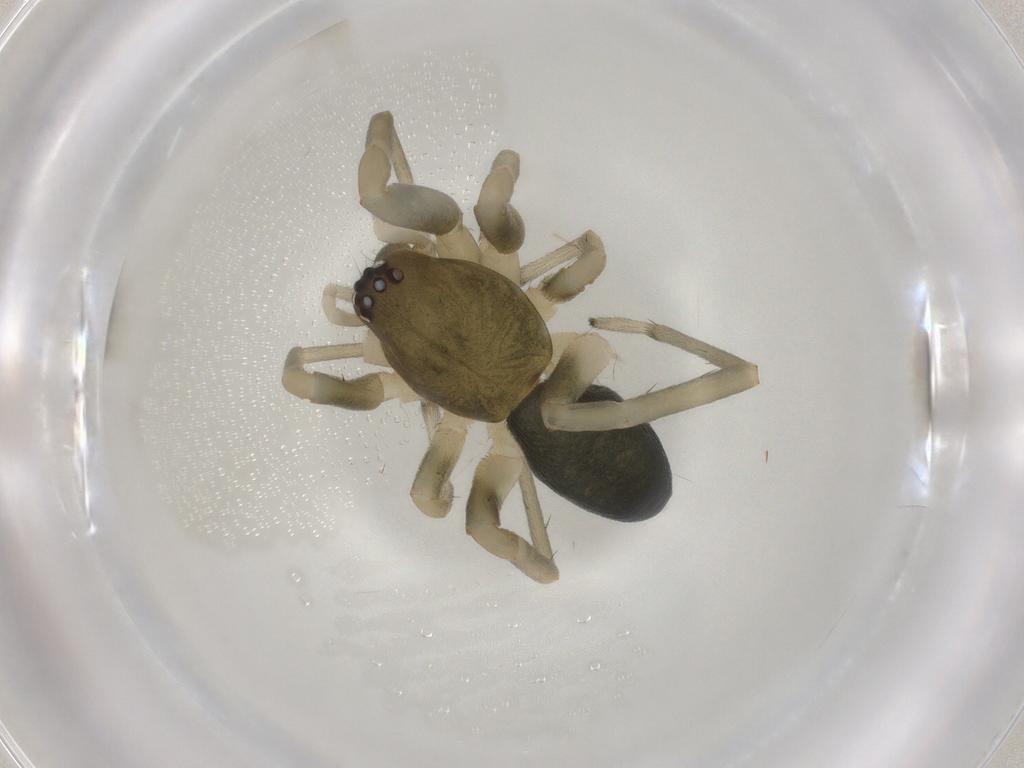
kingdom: Animalia
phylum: Arthropoda
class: Arachnida
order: Araneae
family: Trachelidae
